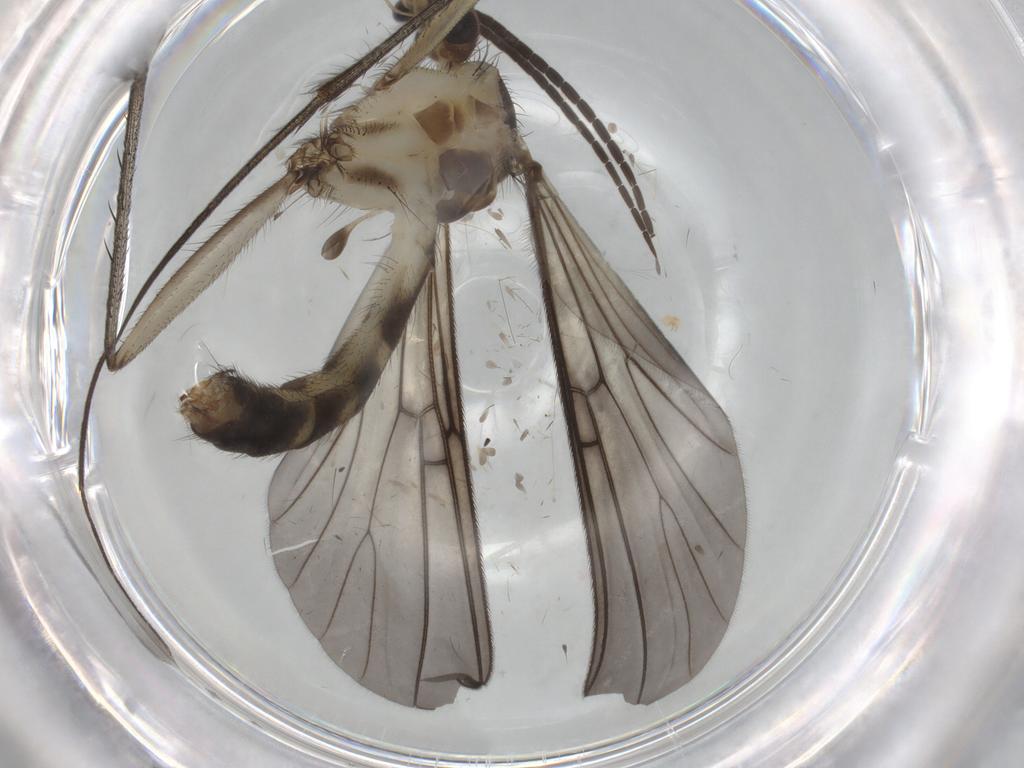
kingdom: Animalia
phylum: Arthropoda
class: Insecta
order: Diptera
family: Mycetophilidae
